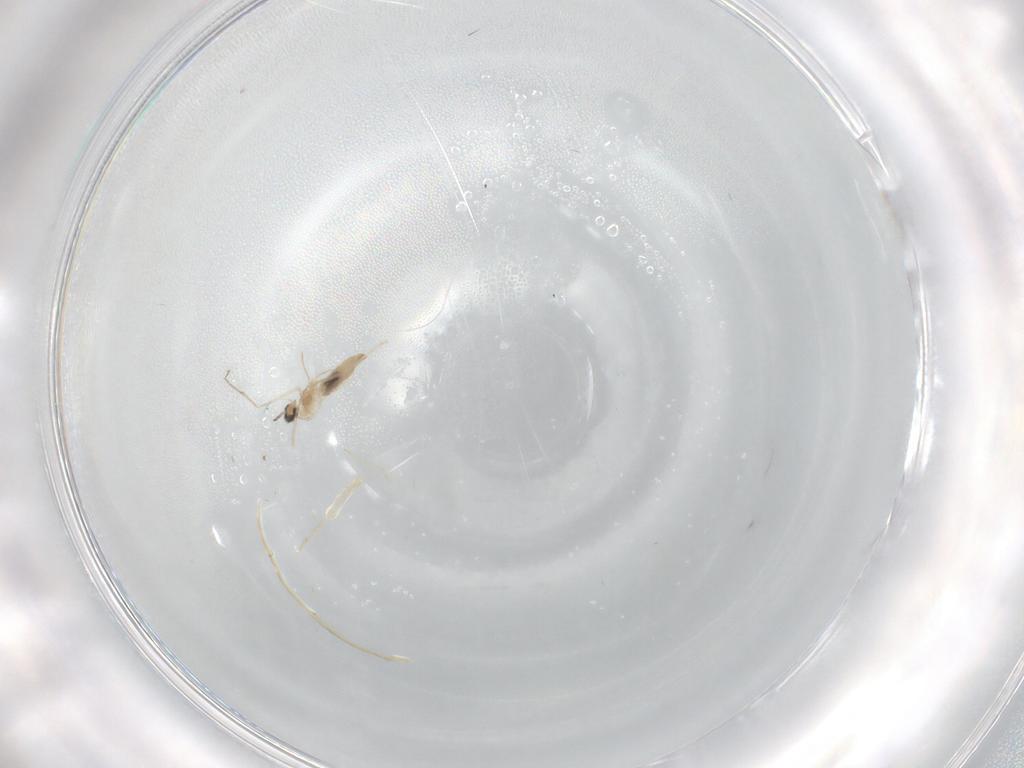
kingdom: Animalia
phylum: Arthropoda
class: Insecta
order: Diptera
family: Cecidomyiidae
